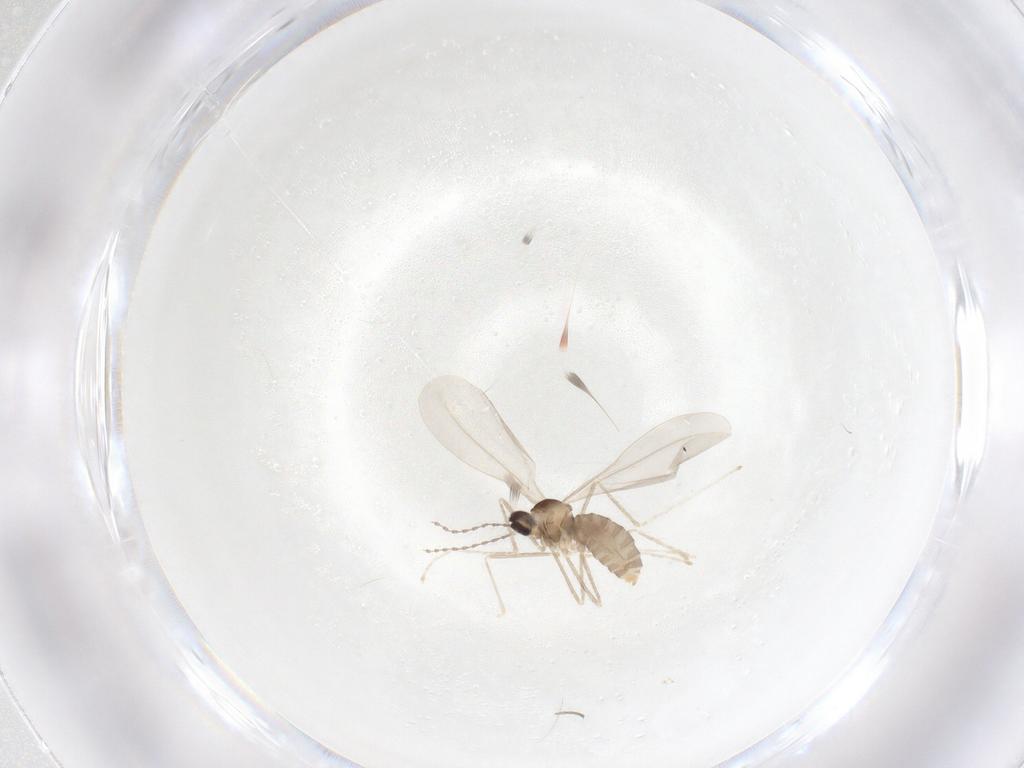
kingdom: Animalia
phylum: Arthropoda
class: Insecta
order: Diptera
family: Cecidomyiidae
